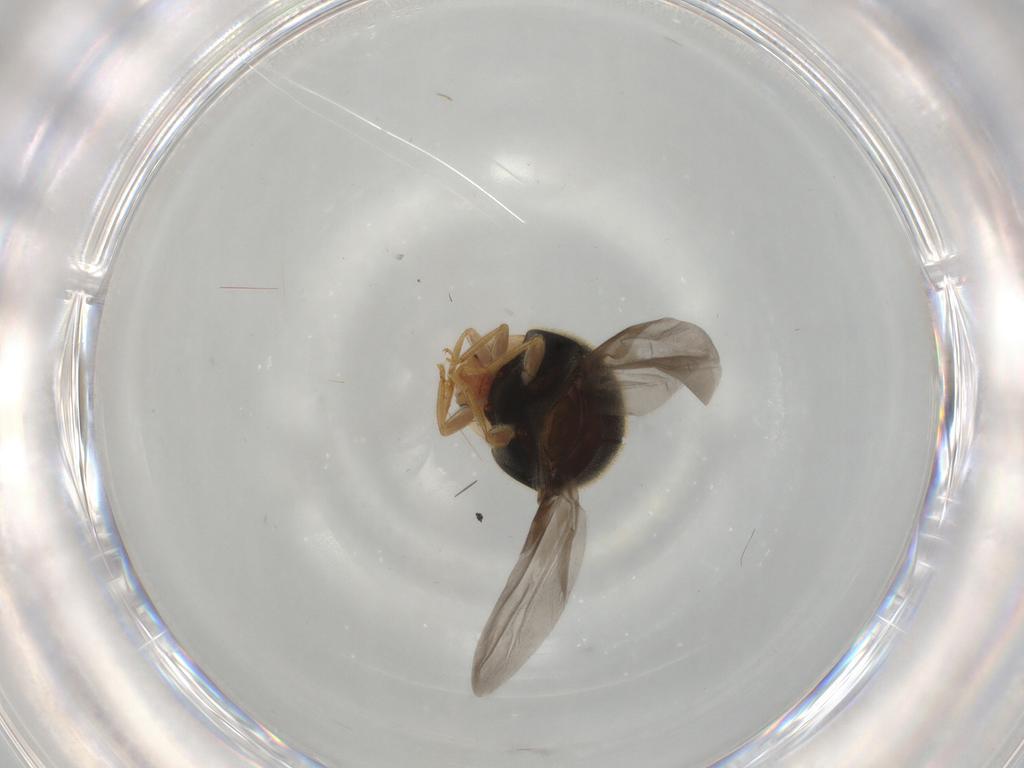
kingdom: Animalia
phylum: Arthropoda
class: Insecta
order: Coleoptera
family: Coccinellidae
